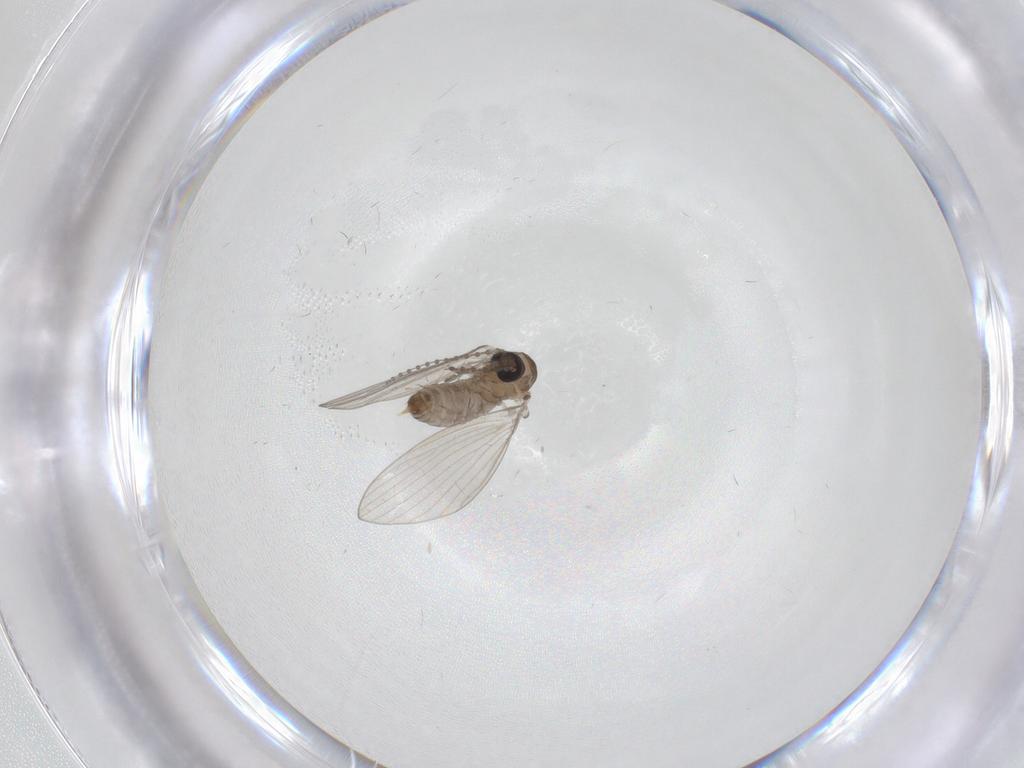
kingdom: Animalia
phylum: Arthropoda
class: Insecta
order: Diptera
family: Psychodidae
